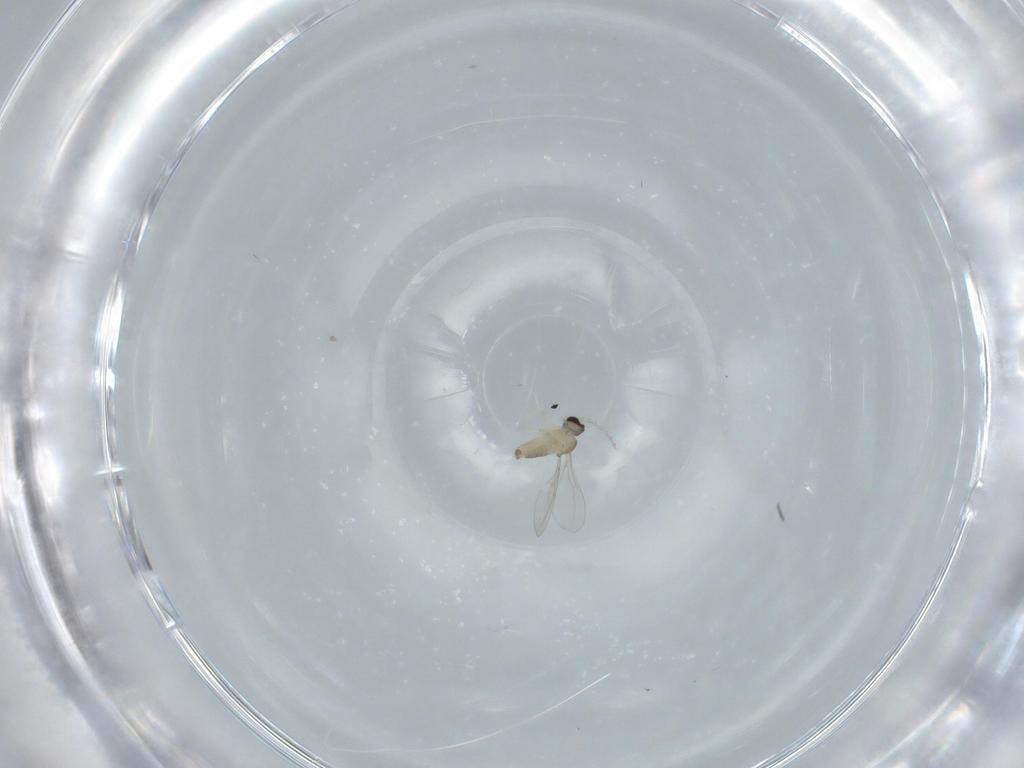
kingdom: Animalia
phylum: Arthropoda
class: Insecta
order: Diptera
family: Cecidomyiidae
